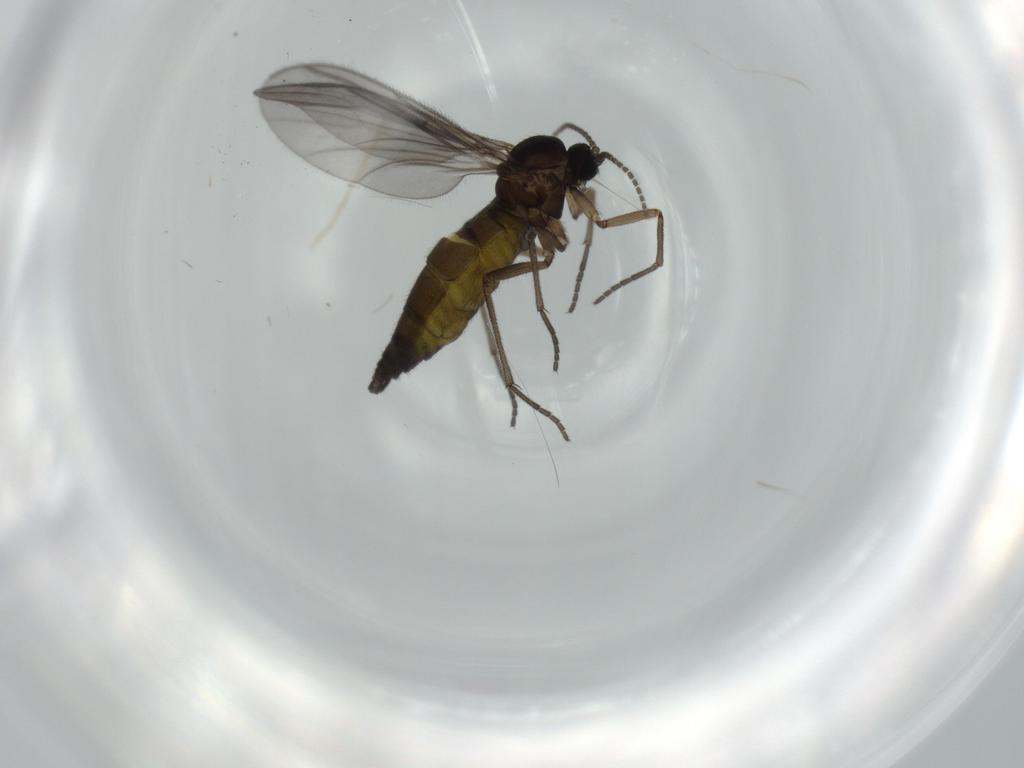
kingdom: Animalia
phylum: Arthropoda
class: Insecta
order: Diptera
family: Sciaridae
